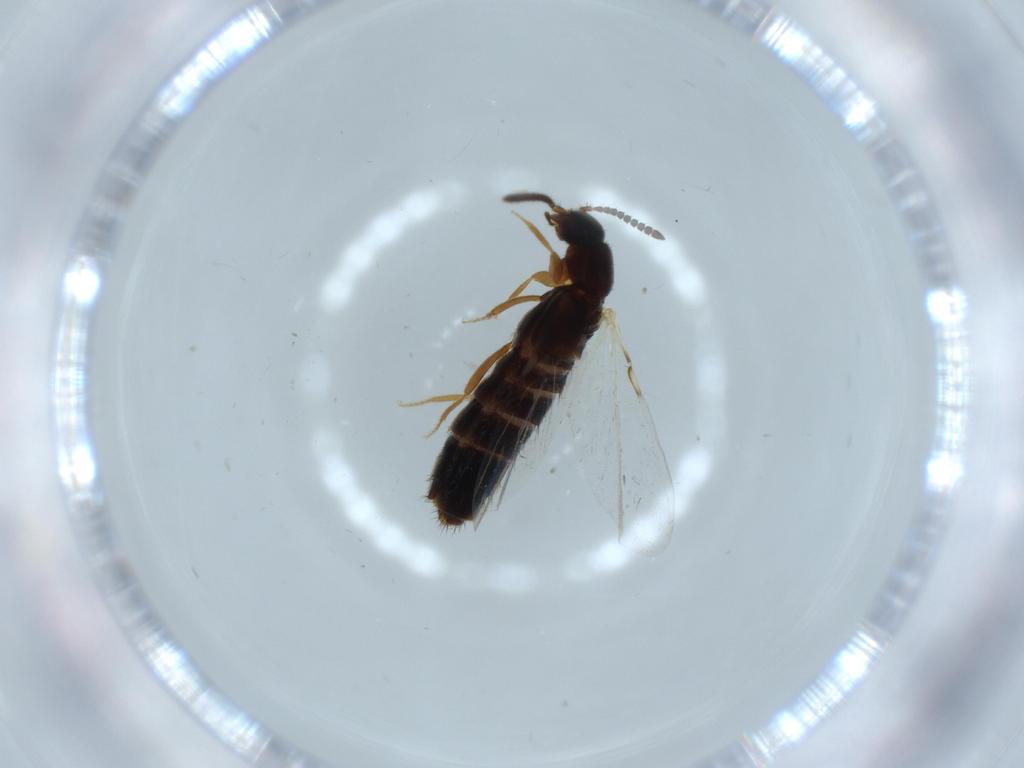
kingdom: Animalia
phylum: Arthropoda
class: Insecta
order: Coleoptera
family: Ptilodactylidae
